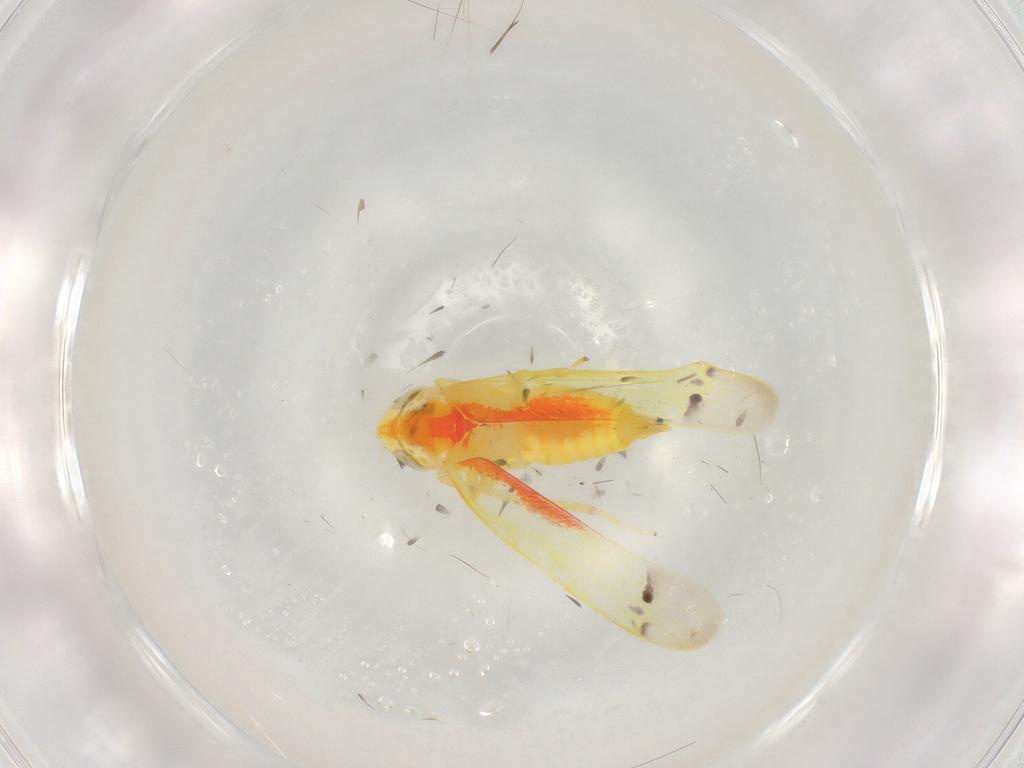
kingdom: Animalia
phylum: Arthropoda
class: Insecta
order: Hemiptera
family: Cicadellidae
